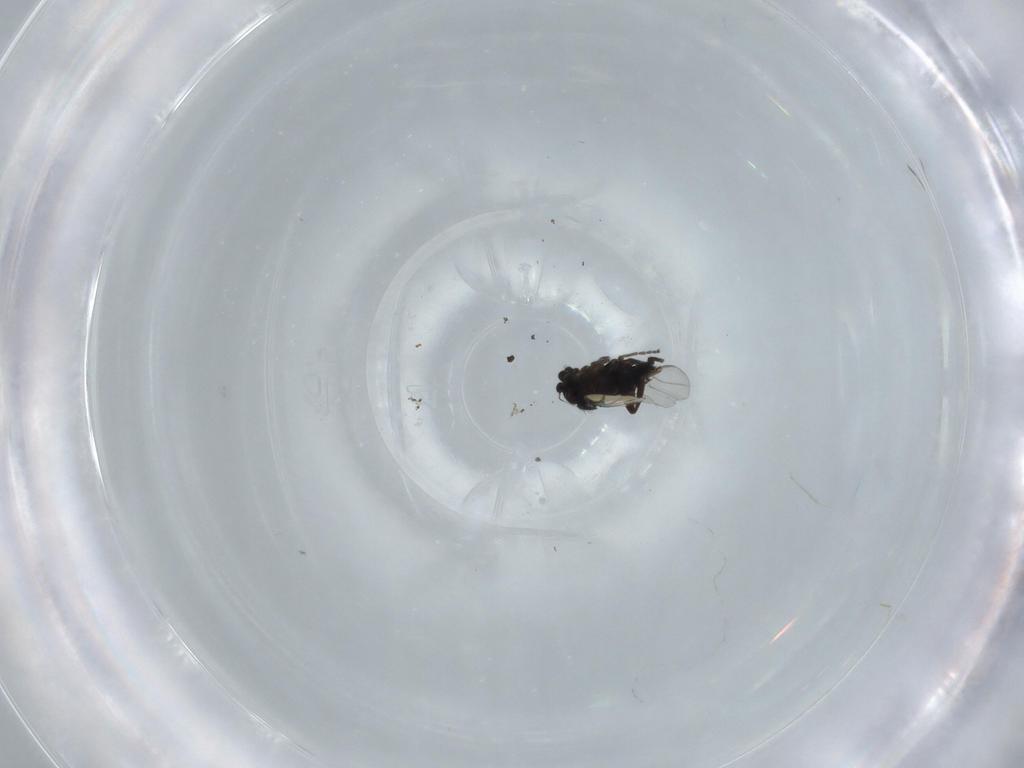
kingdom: Animalia
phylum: Arthropoda
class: Insecta
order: Diptera
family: Phoridae
